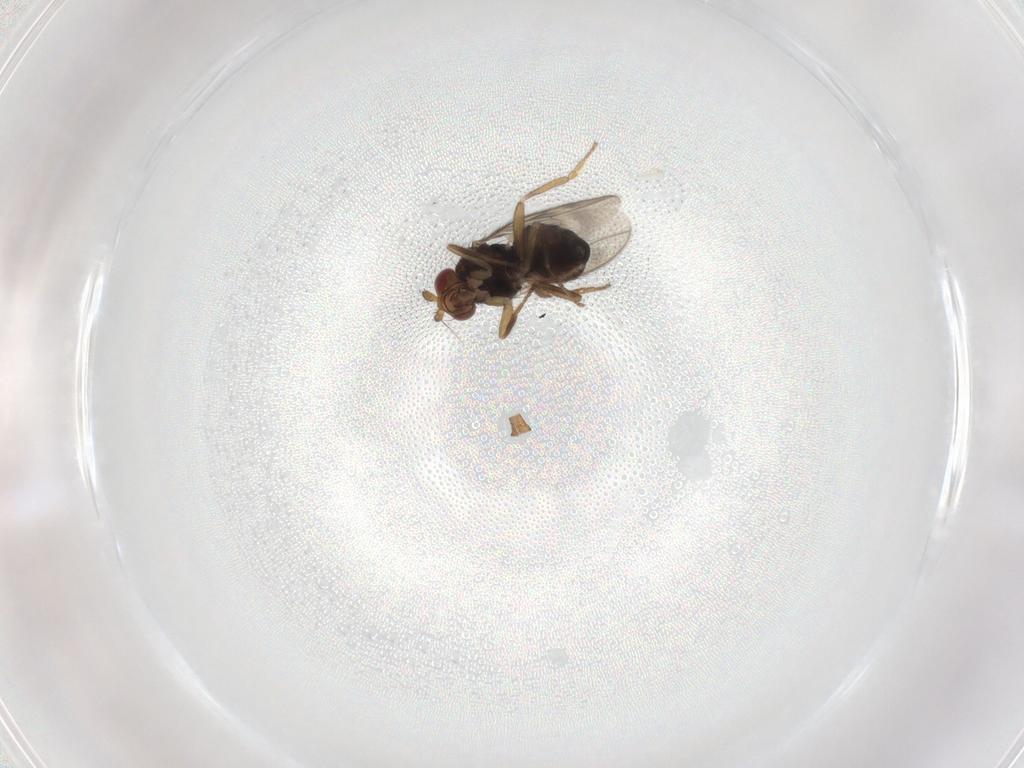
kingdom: Animalia
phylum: Arthropoda
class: Insecta
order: Diptera
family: Sphaeroceridae
